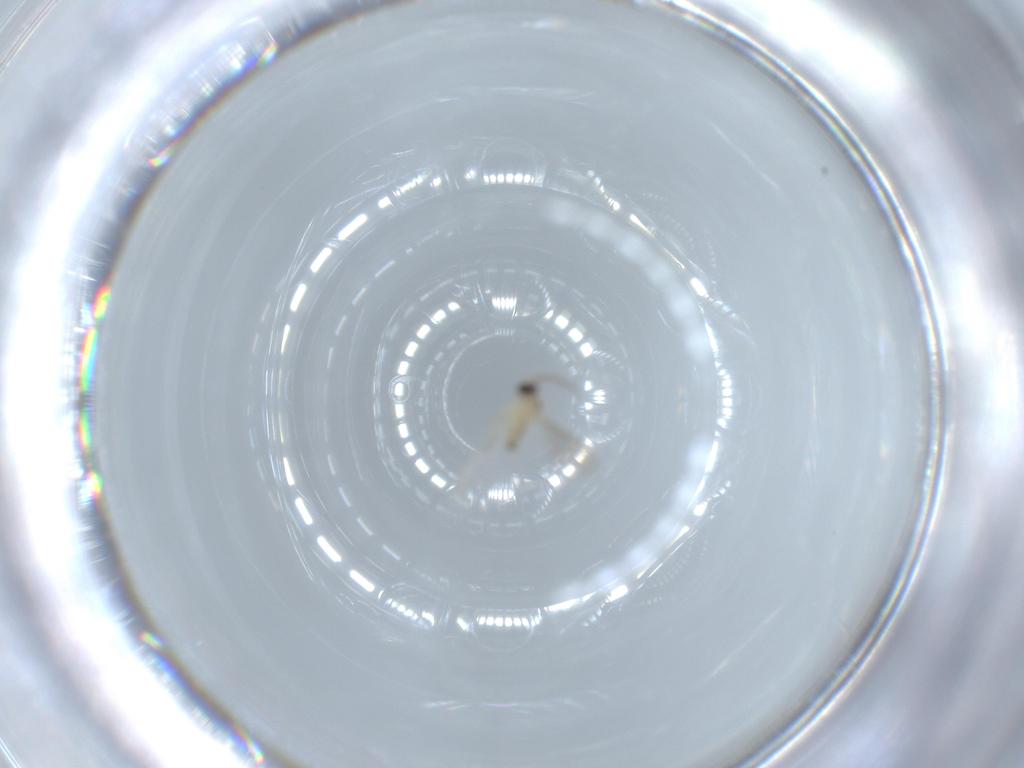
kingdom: Animalia
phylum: Arthropoda
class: Insecta
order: Diptera
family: Cecidomyiidae
